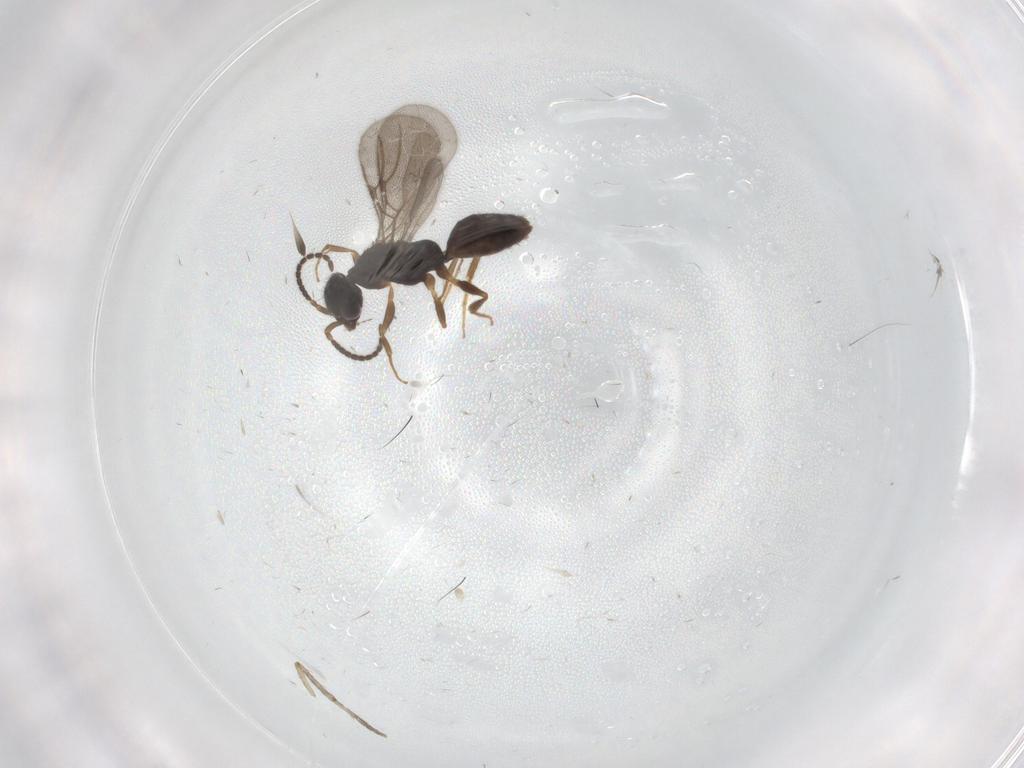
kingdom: Animalia
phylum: Arthropoda
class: Insecta
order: Hymenoptera
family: Bethylidae
